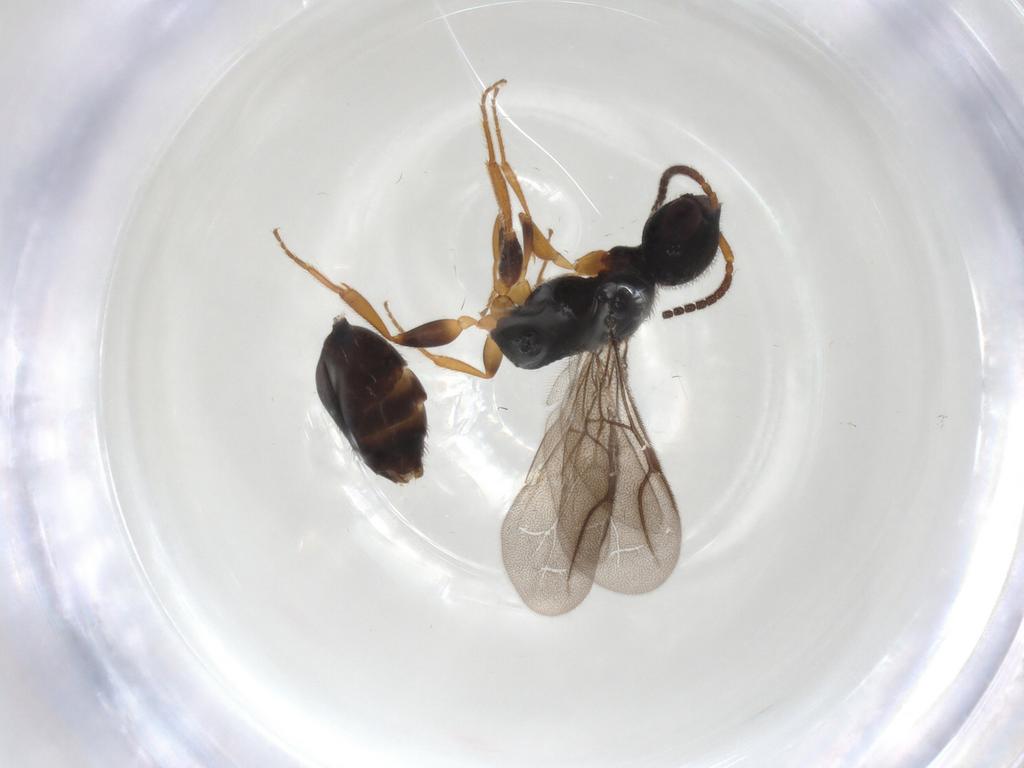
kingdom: Animalia
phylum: Arthropoda
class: Insecta
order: Hymenoptera
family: Bethylidae
